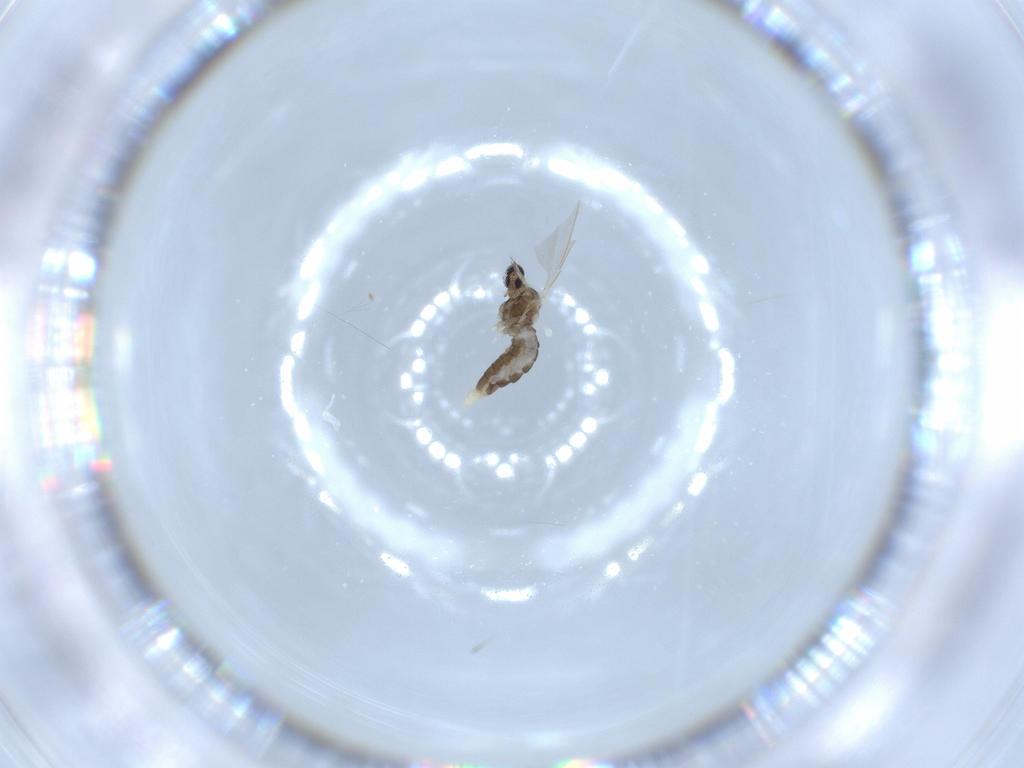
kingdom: Animalia
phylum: Arthropoda
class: Insecta
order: Diptera
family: Cecidomyiidae
